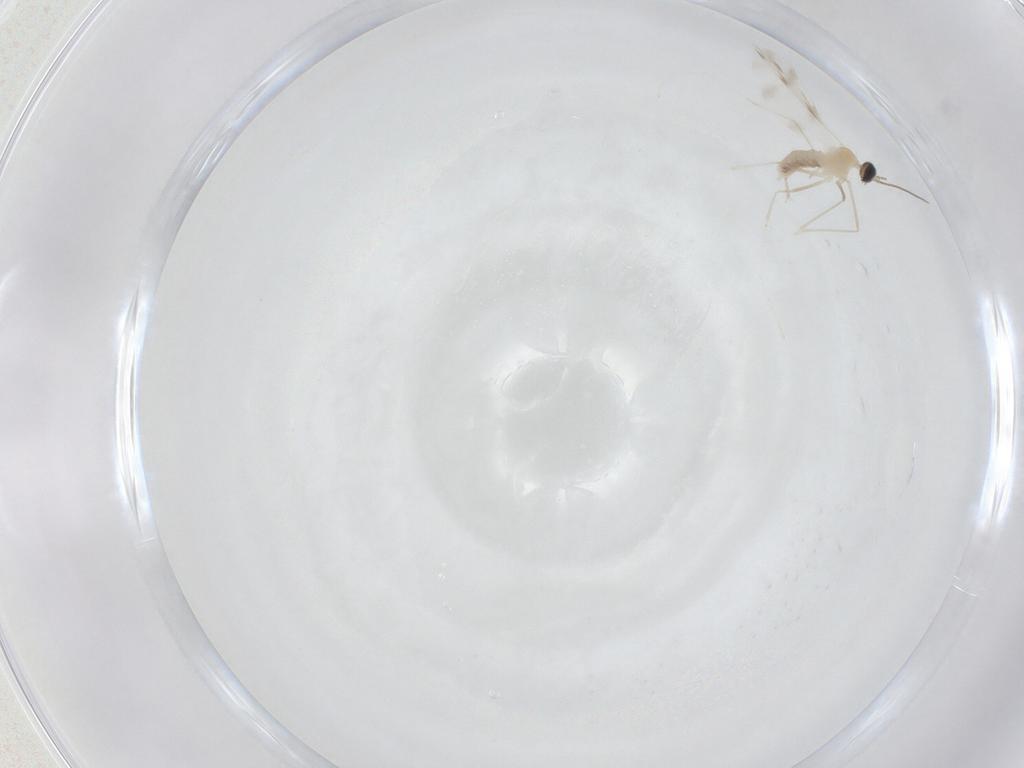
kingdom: Animalia
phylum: Arthropoda
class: Insecta
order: Diptera
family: Cecidomyiidae
